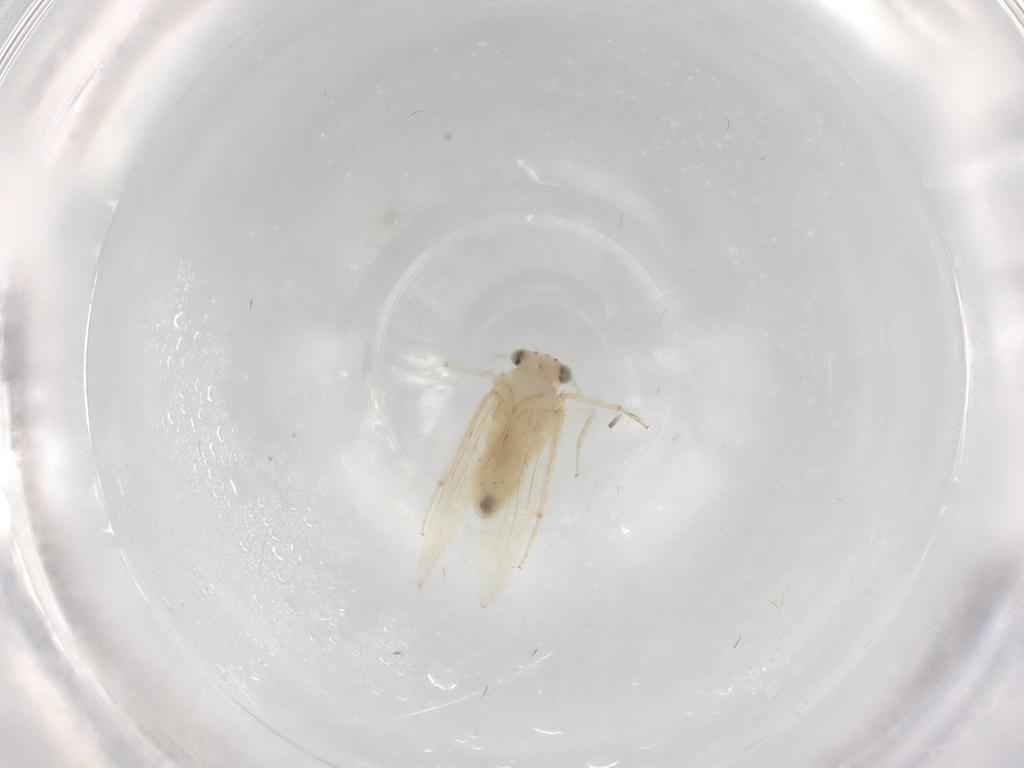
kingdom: Animalia
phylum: Arthropoda
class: Insecta
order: Psocodea
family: Lepidopsocidae
